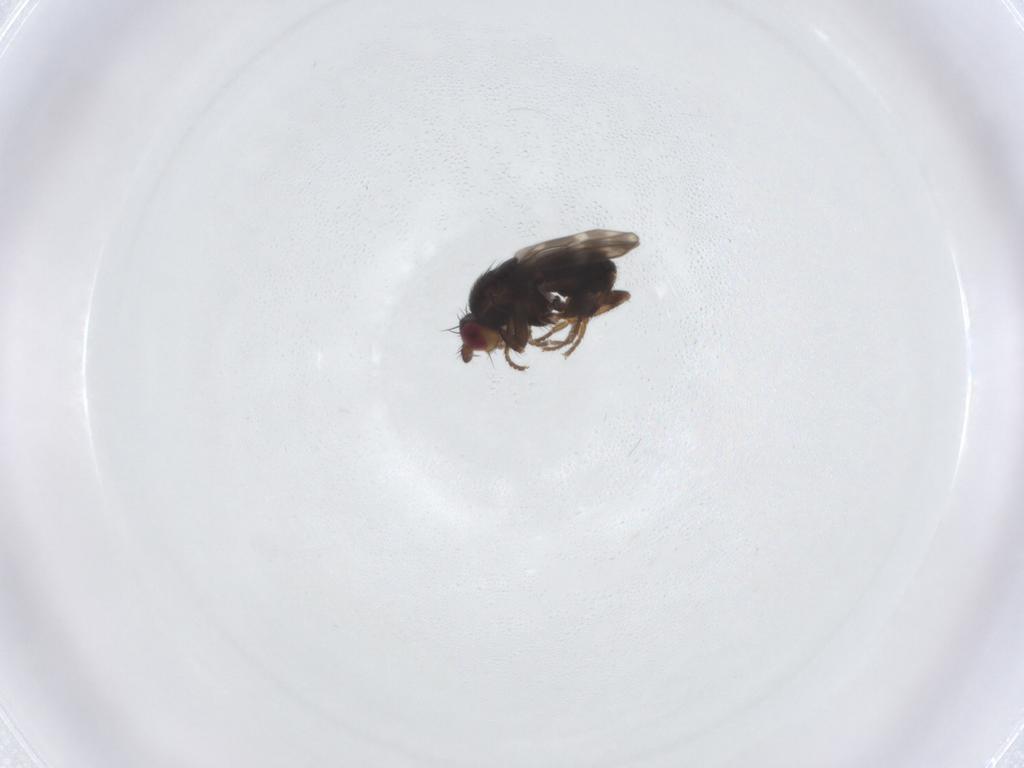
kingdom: Animalia
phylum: Arthropoda
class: Insecta
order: Diptera
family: Sphaeroceridae
